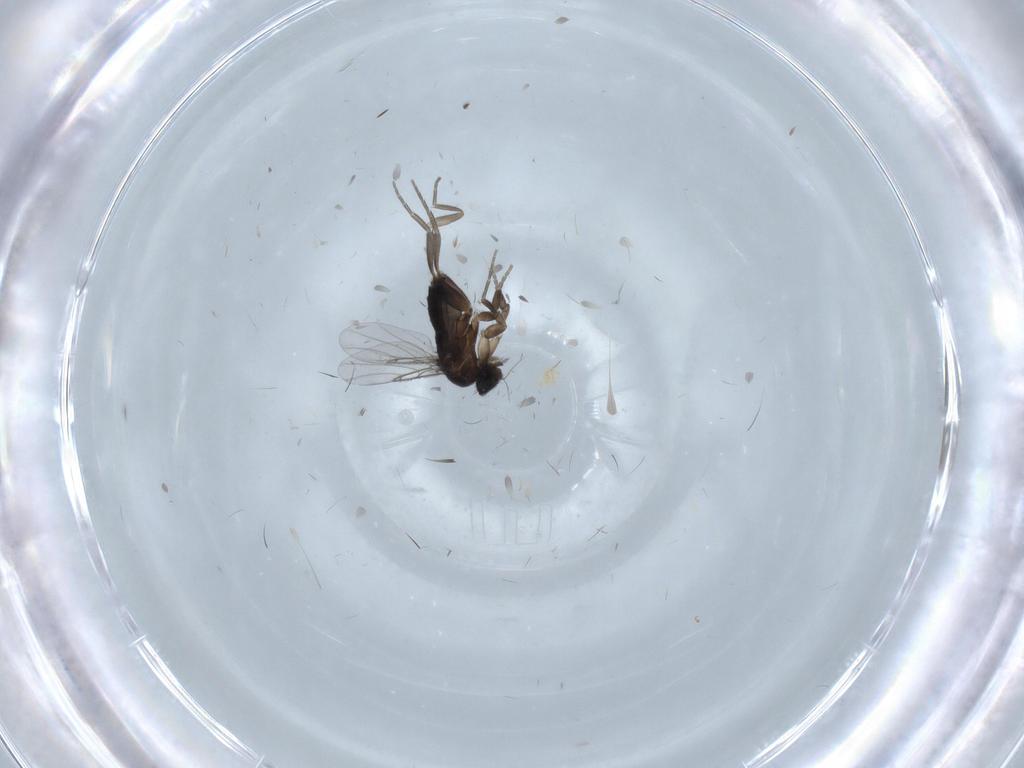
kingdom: Animalia
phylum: Arthropoda
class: Insecta
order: Diptera
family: Phoridae
